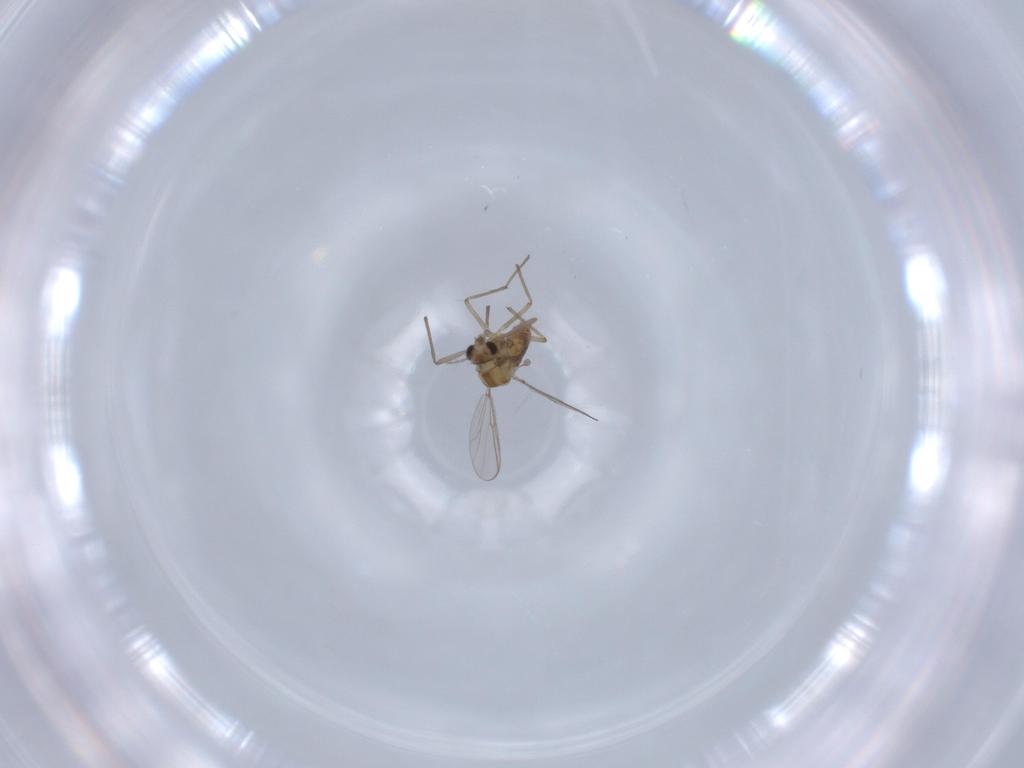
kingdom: Animalia
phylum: Arthropoda
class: Insecta
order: Diptera
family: Chironomidae
